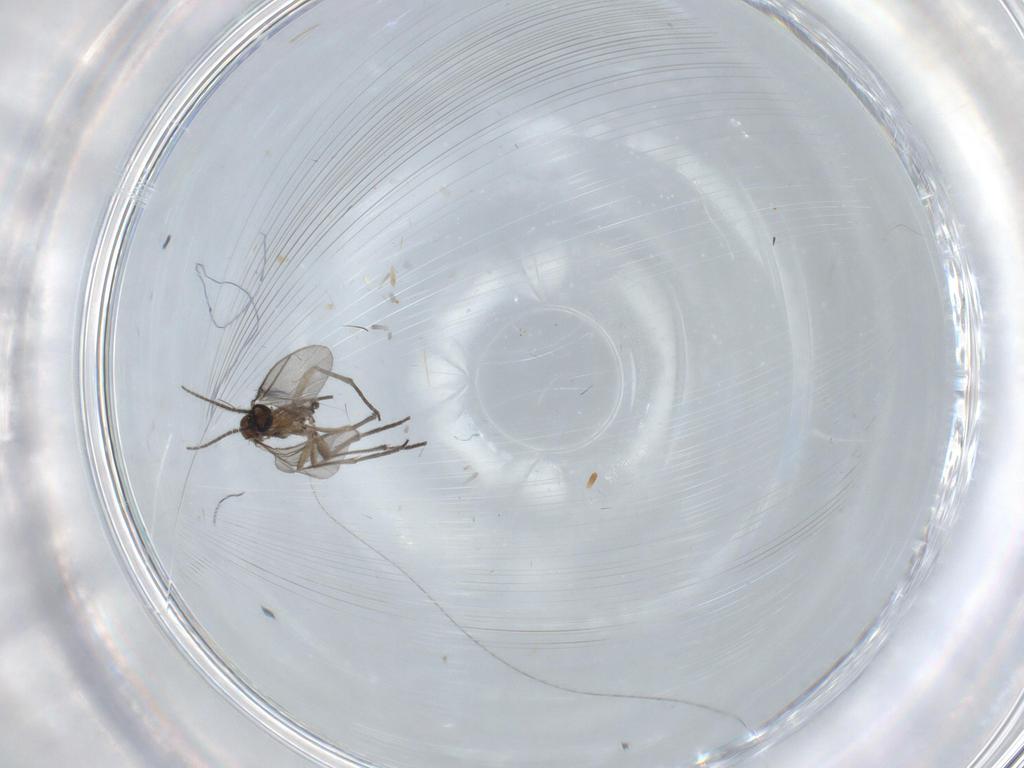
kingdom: Animalia
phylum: Arthropoda
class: Insecta
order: Diptera
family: Sciaridae
